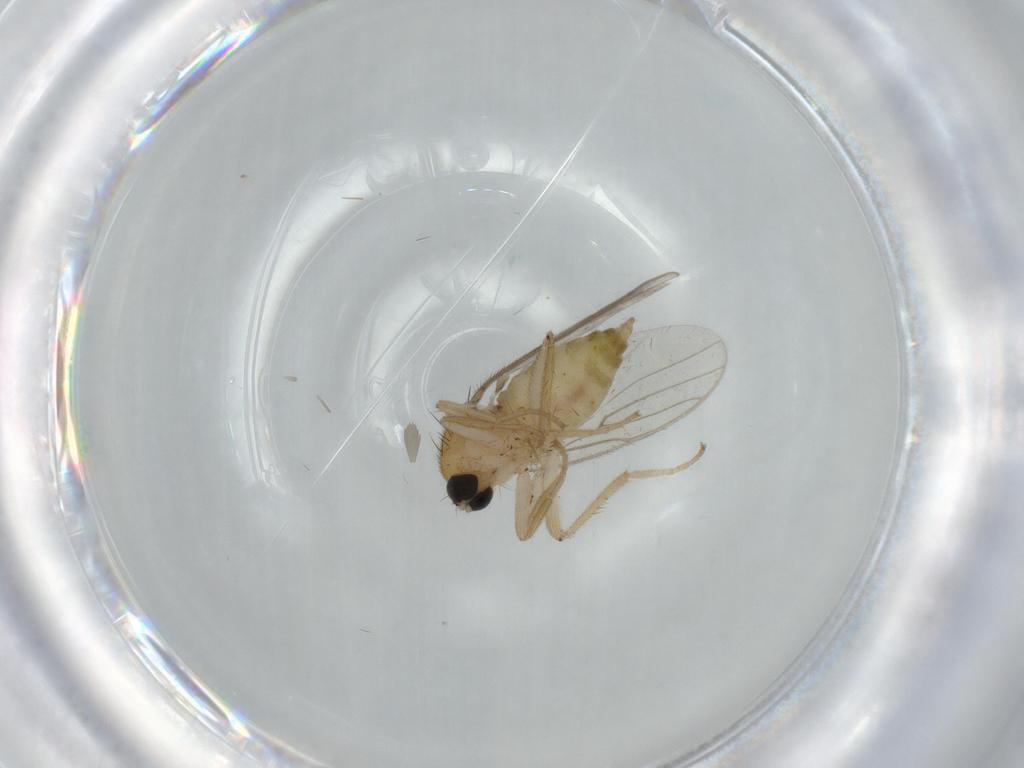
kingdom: Animalia
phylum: Arthropoda
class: Insecta
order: Diptera
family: Hybotidae
